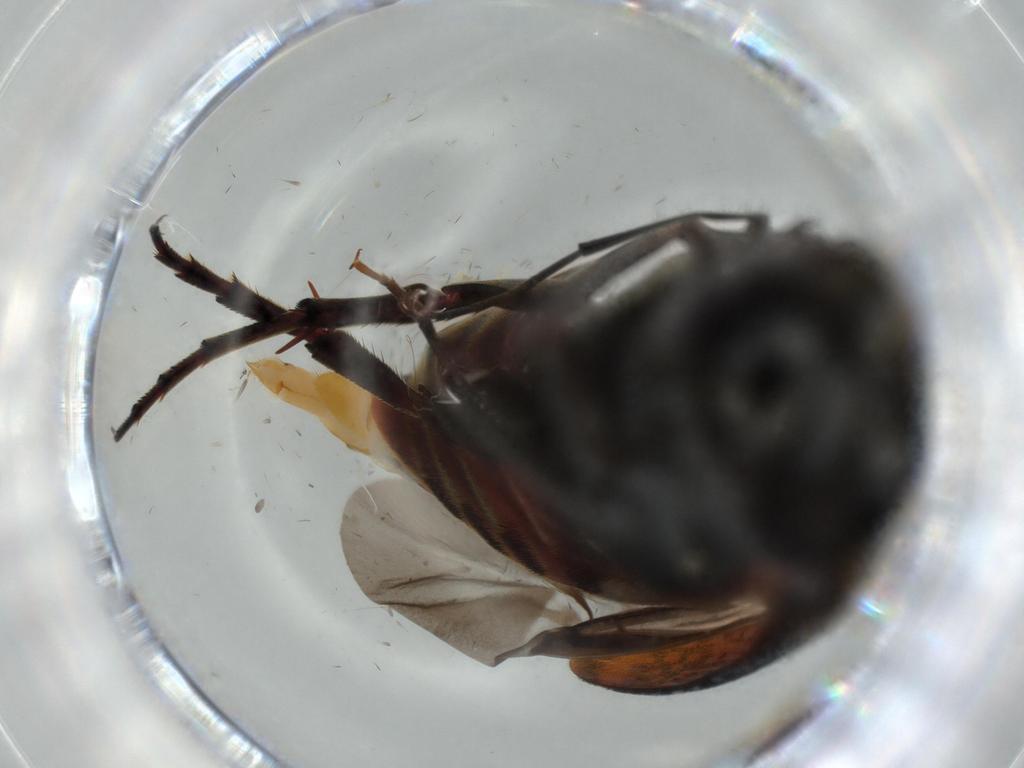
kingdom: Animalia
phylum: Arthropoda
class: Insecta
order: Coleoptera
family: Mordellidae
